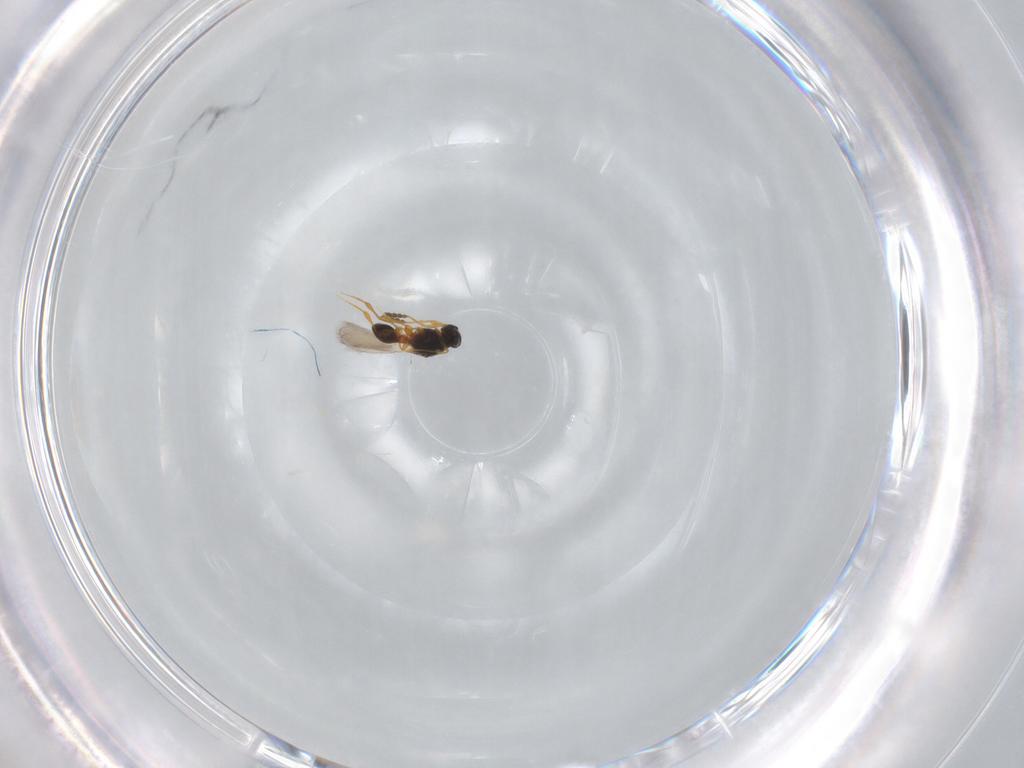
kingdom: Animalia
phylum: Arthropoda
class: Insecta
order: Hymenoptera
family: Platygastridae
